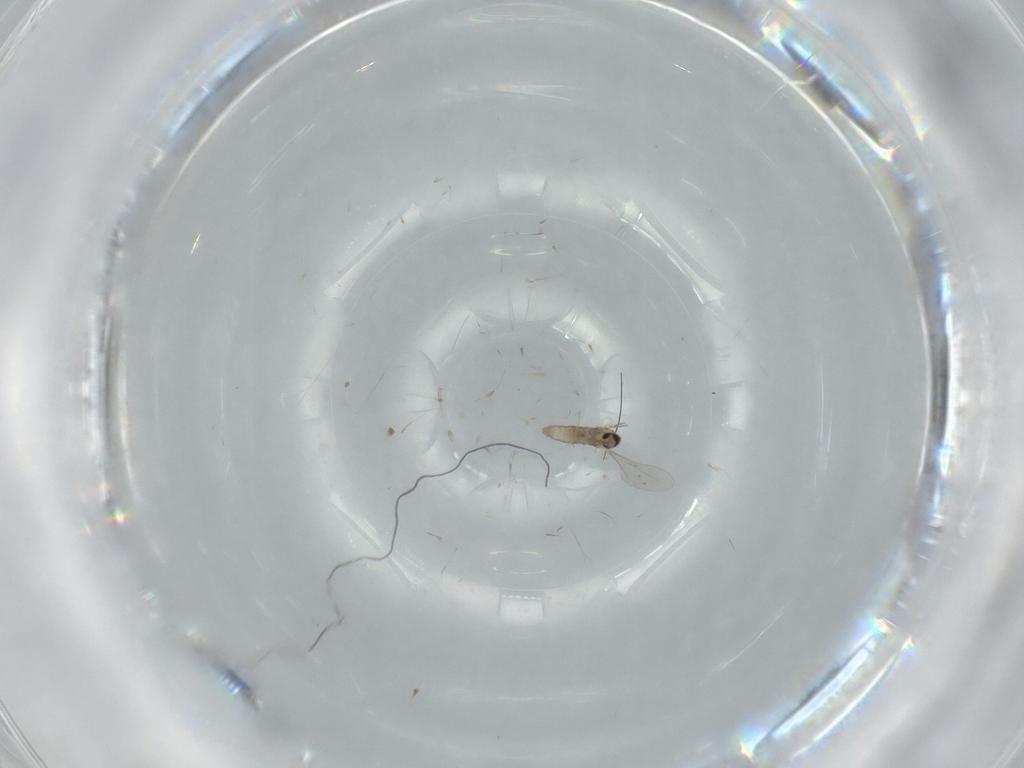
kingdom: Animalia
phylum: Arthropoda
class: Insecta
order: Diptera
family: Cecidomyiidae
